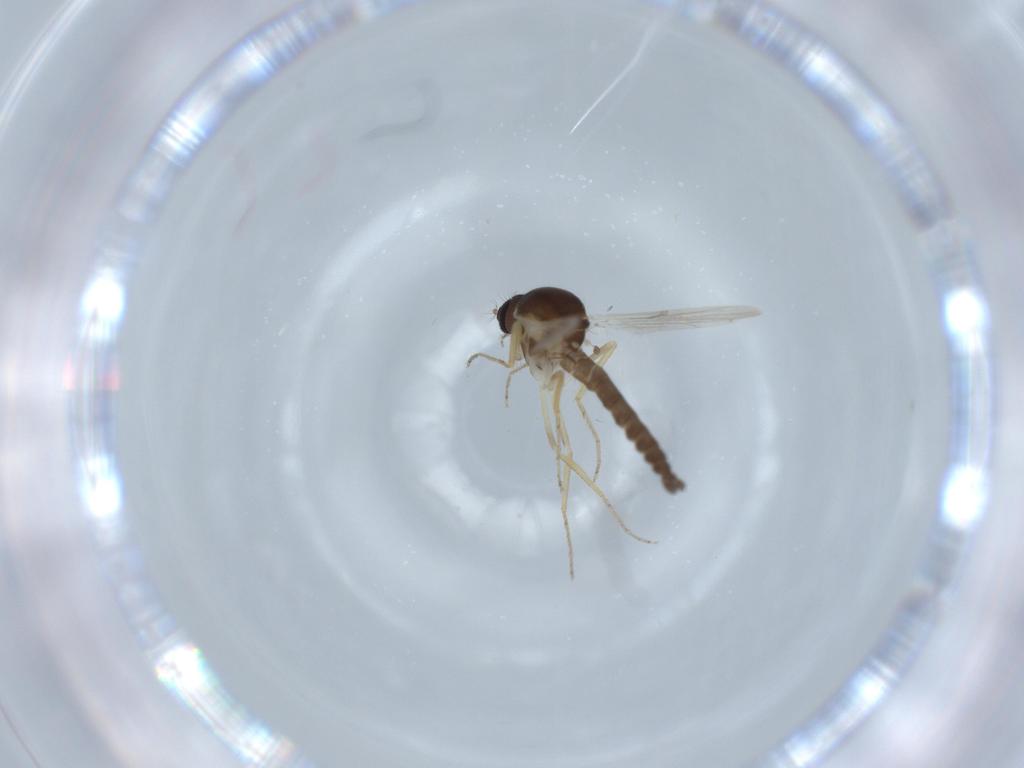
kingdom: Animalia
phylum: Arthropoda
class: Insecta
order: Diptera
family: Ceratopogonidae
